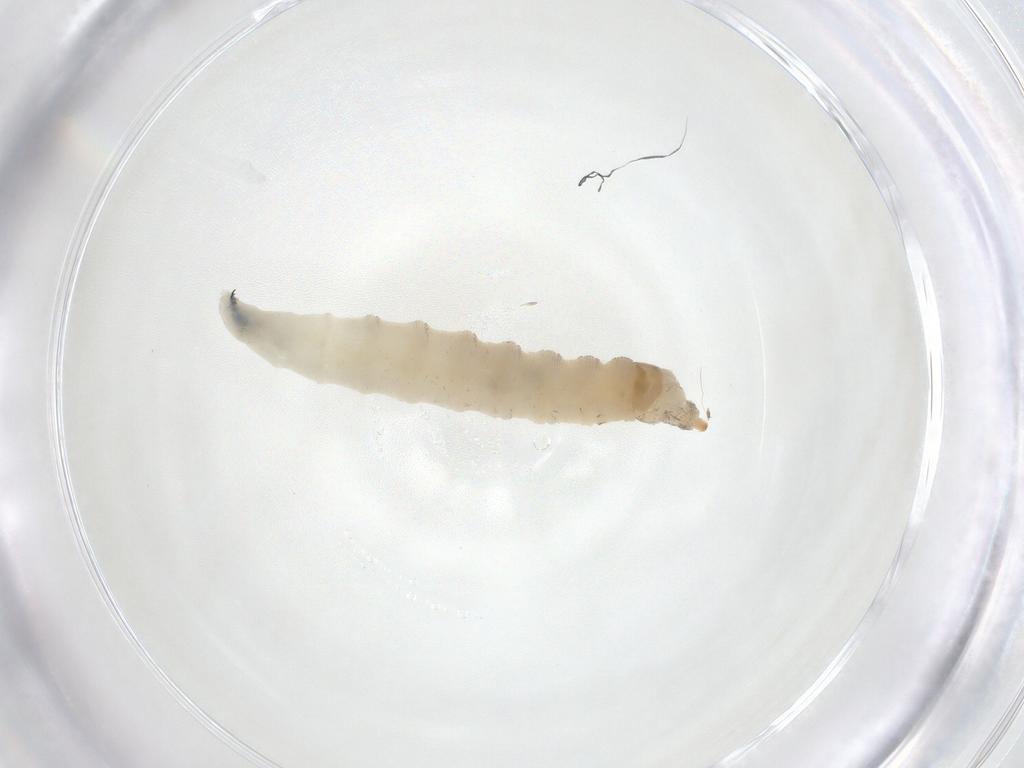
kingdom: Animalia
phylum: Arthropoda
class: Insecta
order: Diptera
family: Drosophilidae
